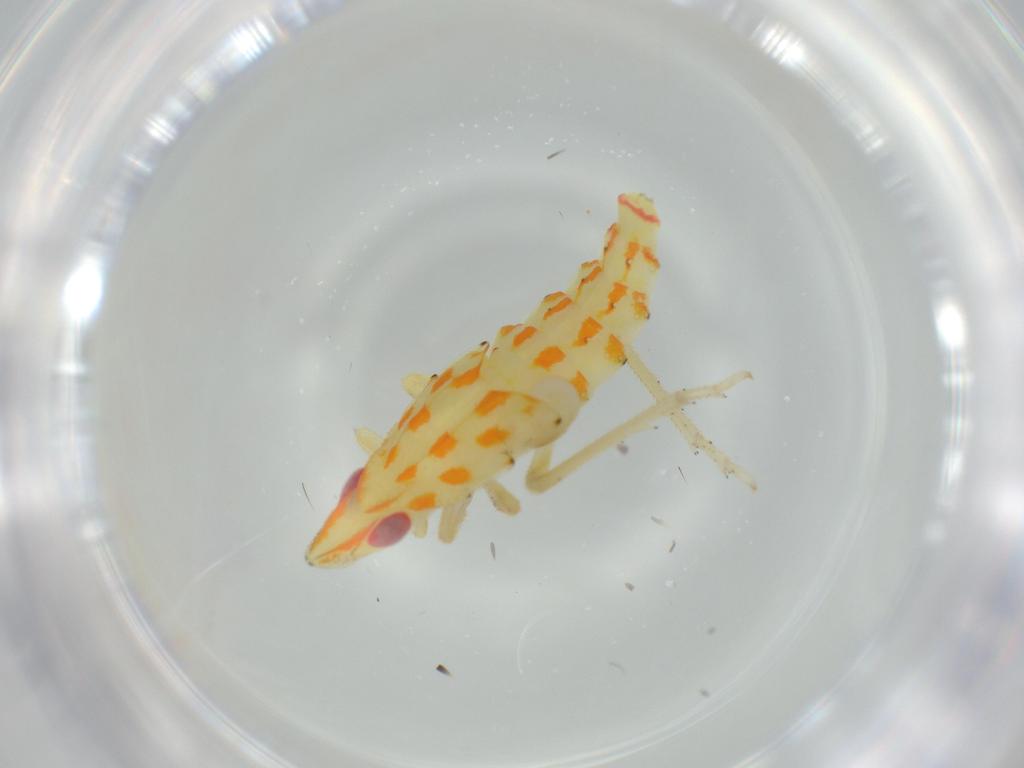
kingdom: Animalia
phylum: Arthropoda
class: Insecta
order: Hemiptera
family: Tropiduchidae
